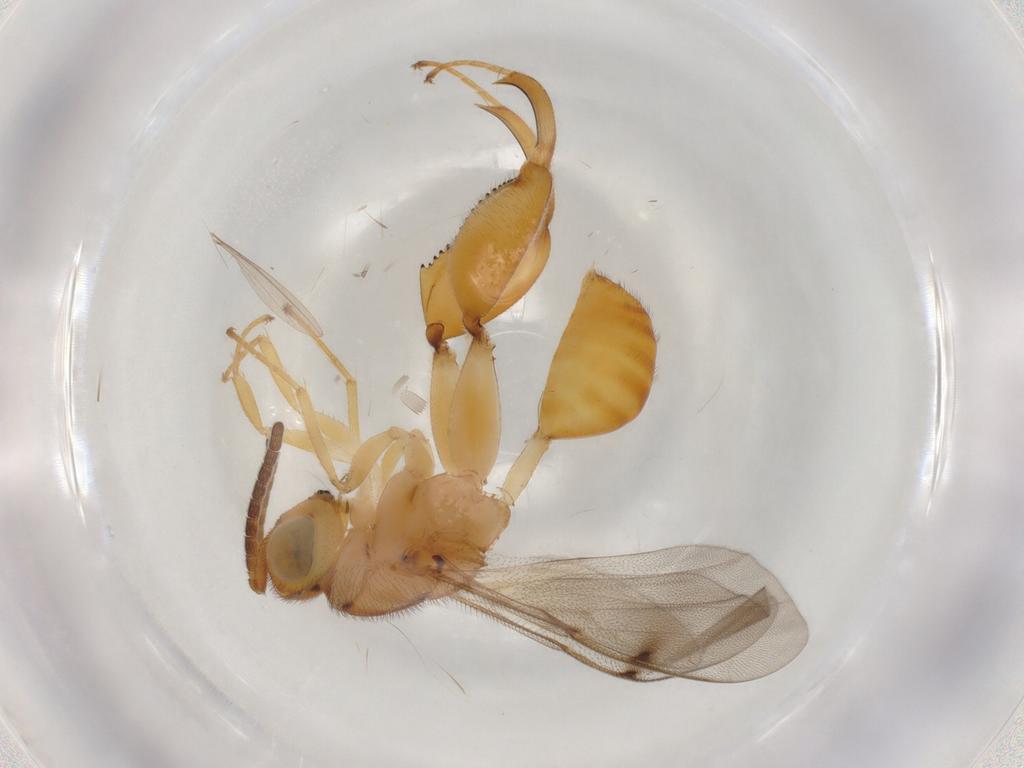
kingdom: Animalia
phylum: Arthropoda
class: Insecta
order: Hymenoptera
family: Chalcididae
